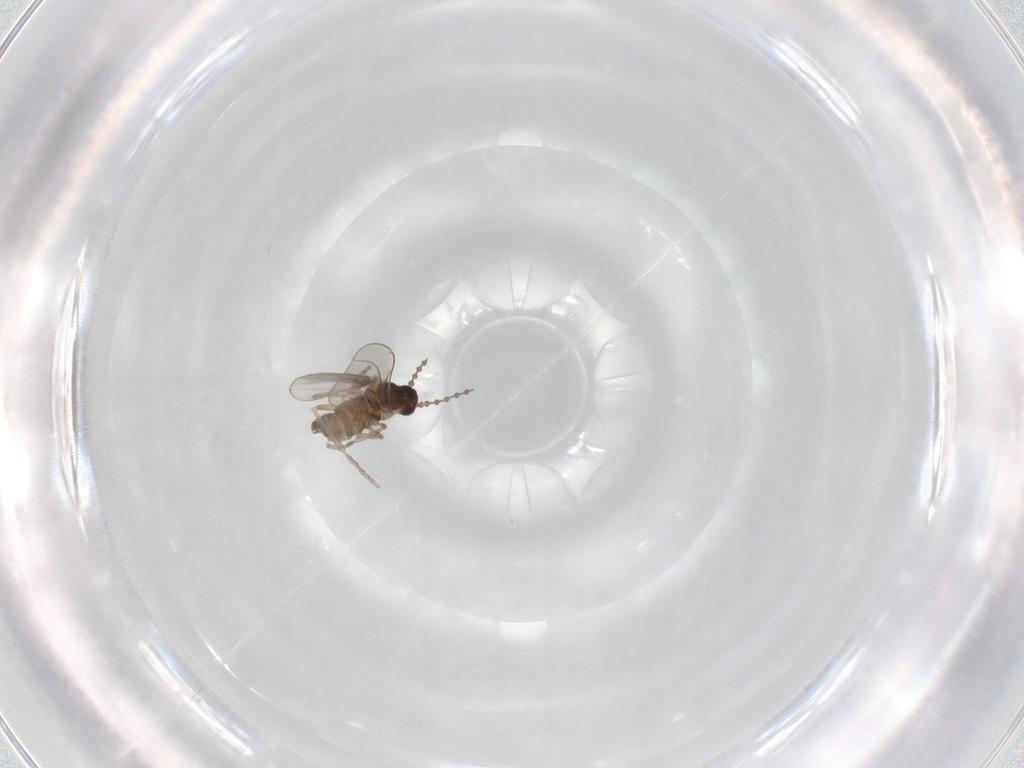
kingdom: Animalia
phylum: Arthropoda
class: Insecta
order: Diptera
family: Cecidomyiidae
